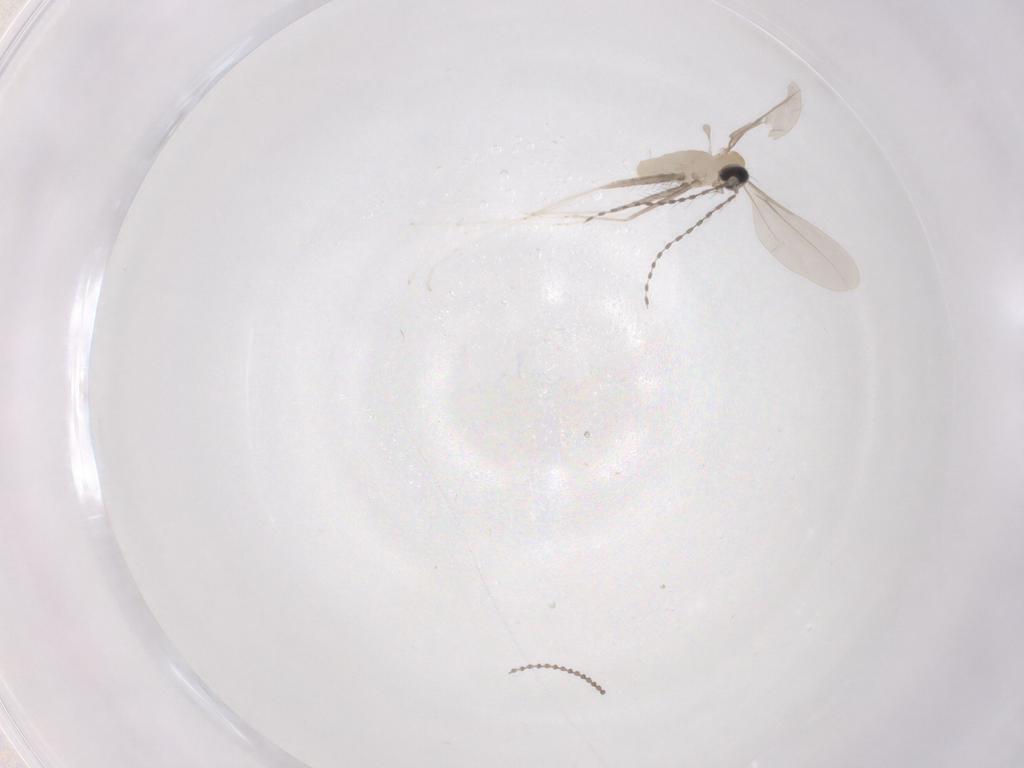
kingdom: Animalia
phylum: Arthropoda
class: Insecta
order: Diptera
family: Cecidomyiidae
